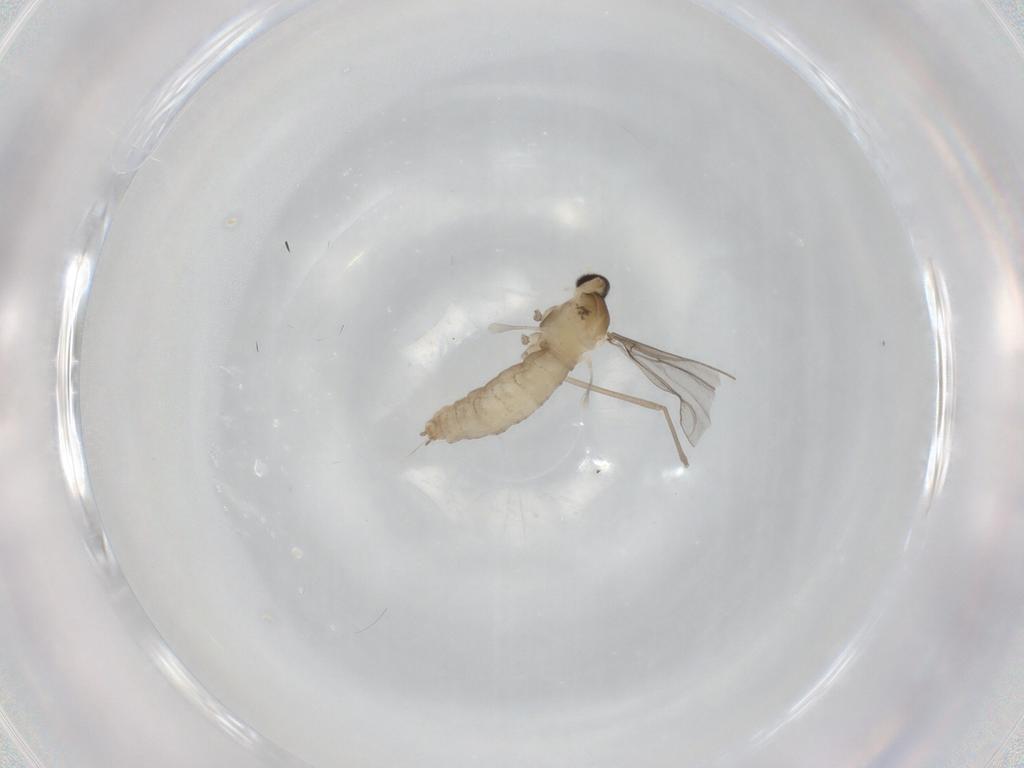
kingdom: Animalia
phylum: Arthropoda
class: Insecta
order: Diptera
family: Cecidomyiidae
